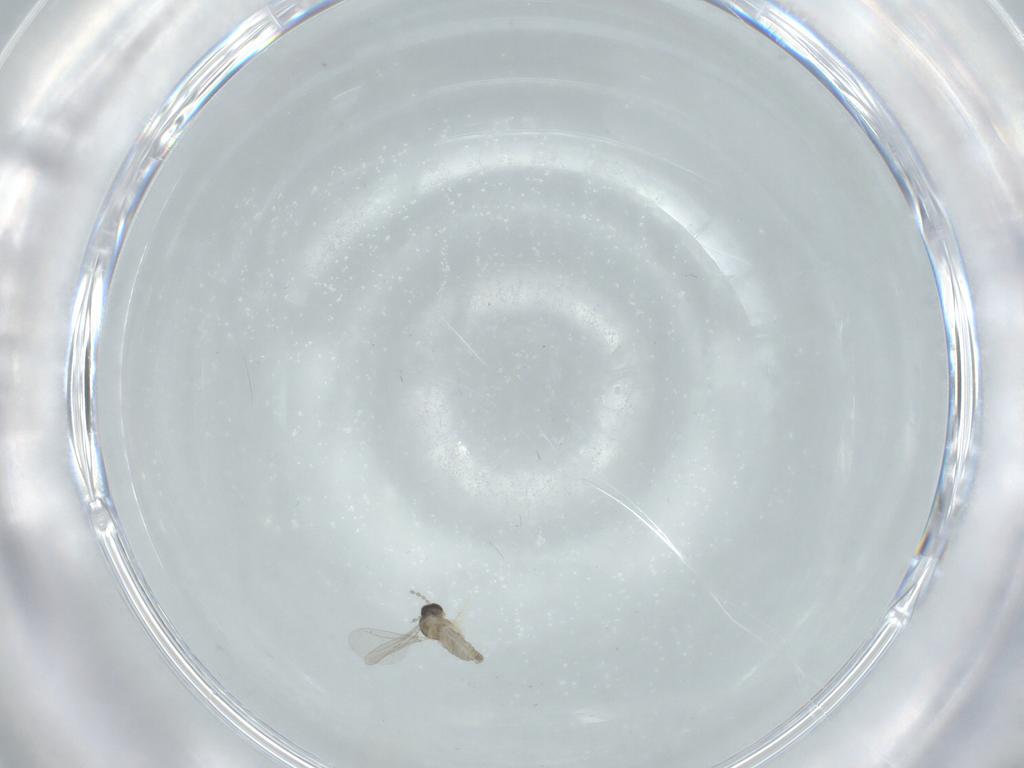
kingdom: Animalia
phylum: Arthropoda
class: Insecta
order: Diptera
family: Cecidomyiidae
